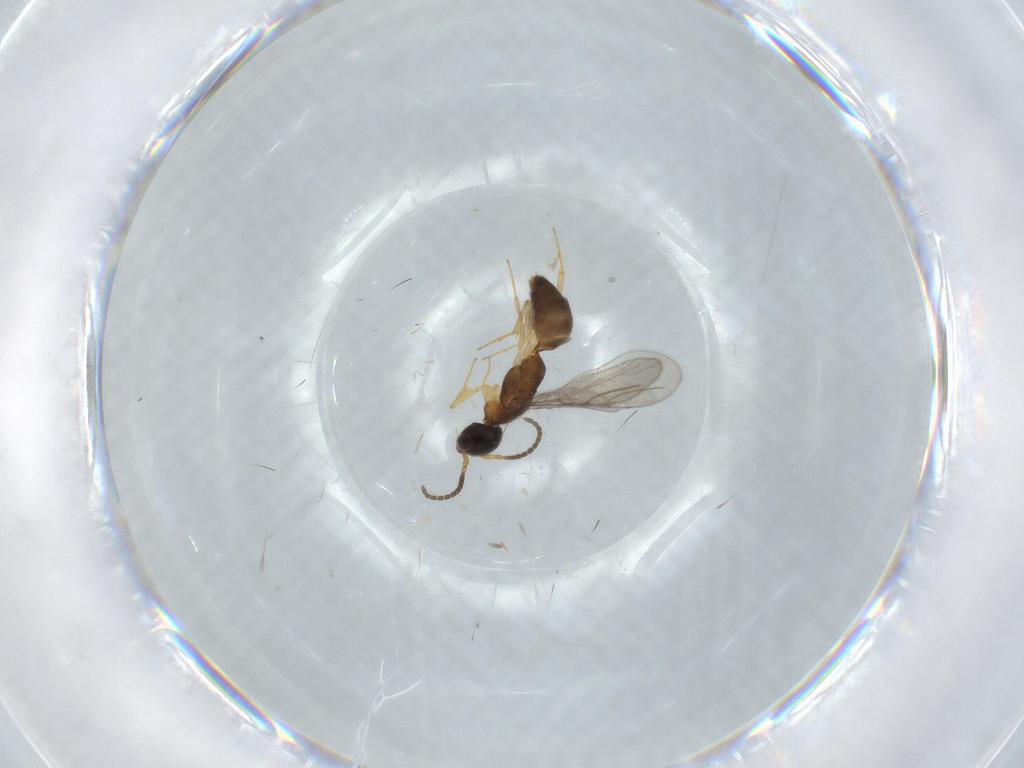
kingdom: Animalia
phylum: Arthropoda
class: Insecta
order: Hymenoptera
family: Bethylidae
